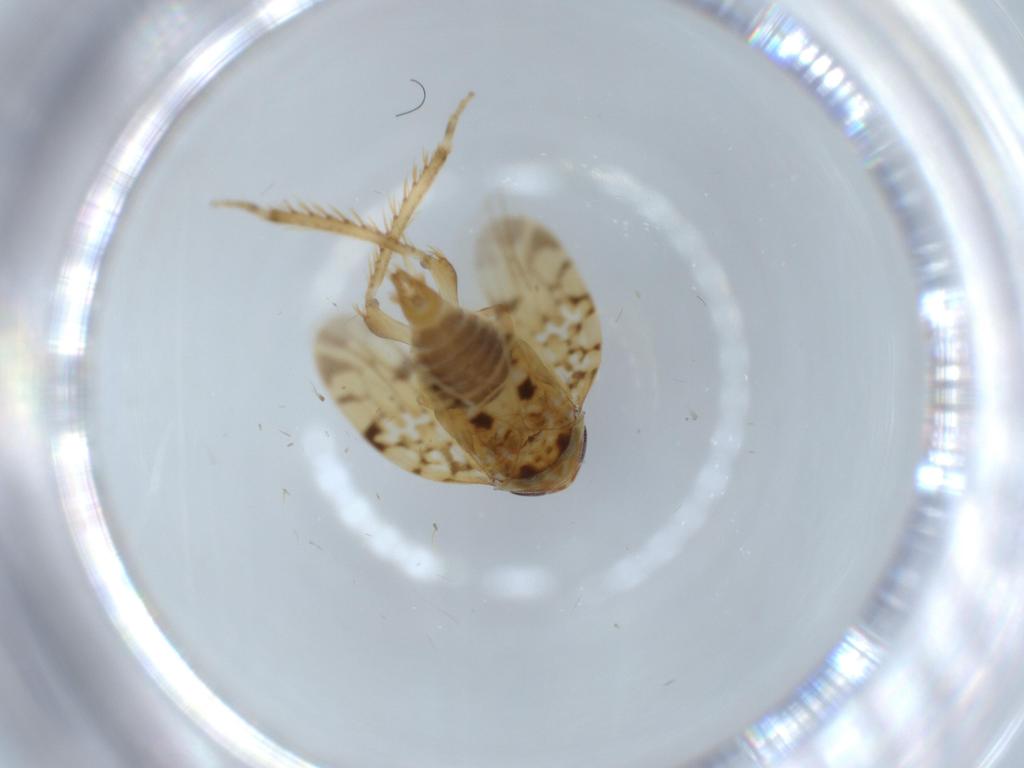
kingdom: Animalia
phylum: Arthropoda
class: Insecta
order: Hemiptera
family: Cicadellidae
